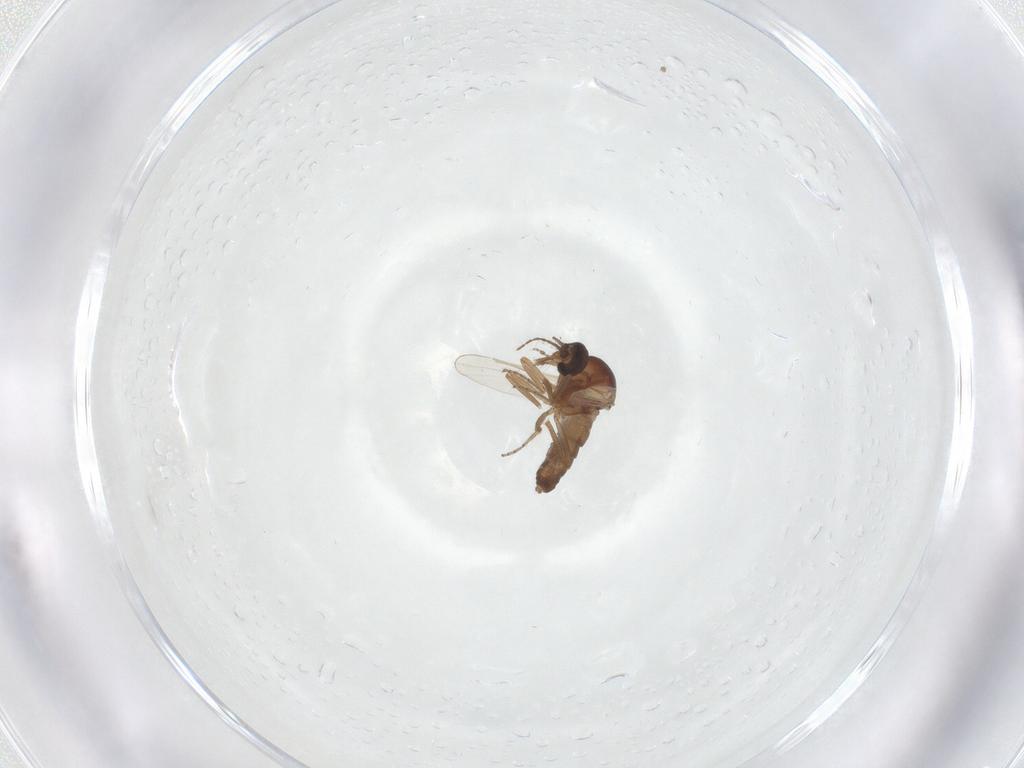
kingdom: Animalia
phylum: Arthropoda
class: Insecta
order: Diptera
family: Ceratopogonidae
